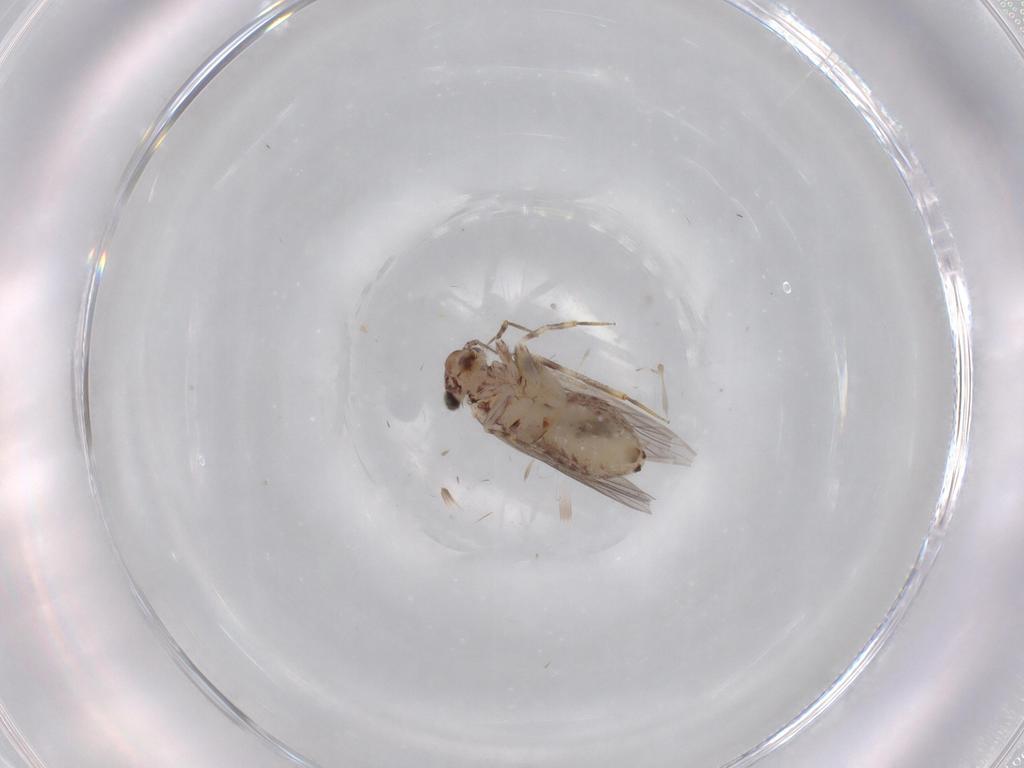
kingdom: Animalia
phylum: Arthropoda
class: Insecta
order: Psocodea
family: Lepidopsocidae
